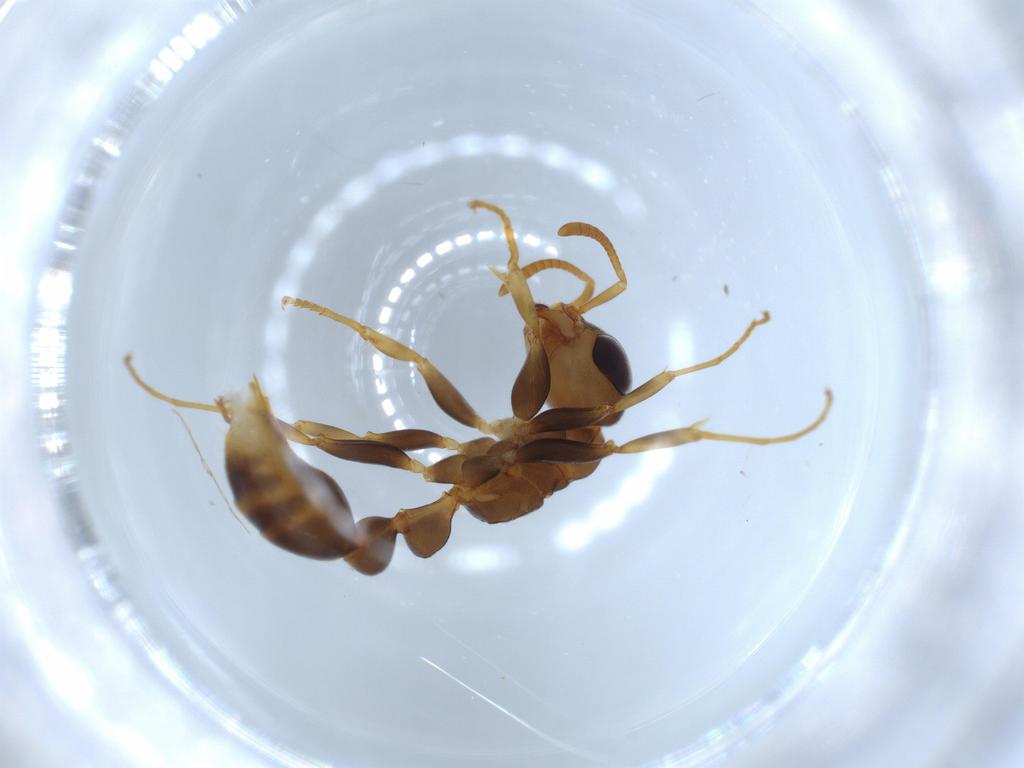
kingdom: Animalia
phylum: Arthropoda
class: Insecta
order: Hymenoptera
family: Formicidae
